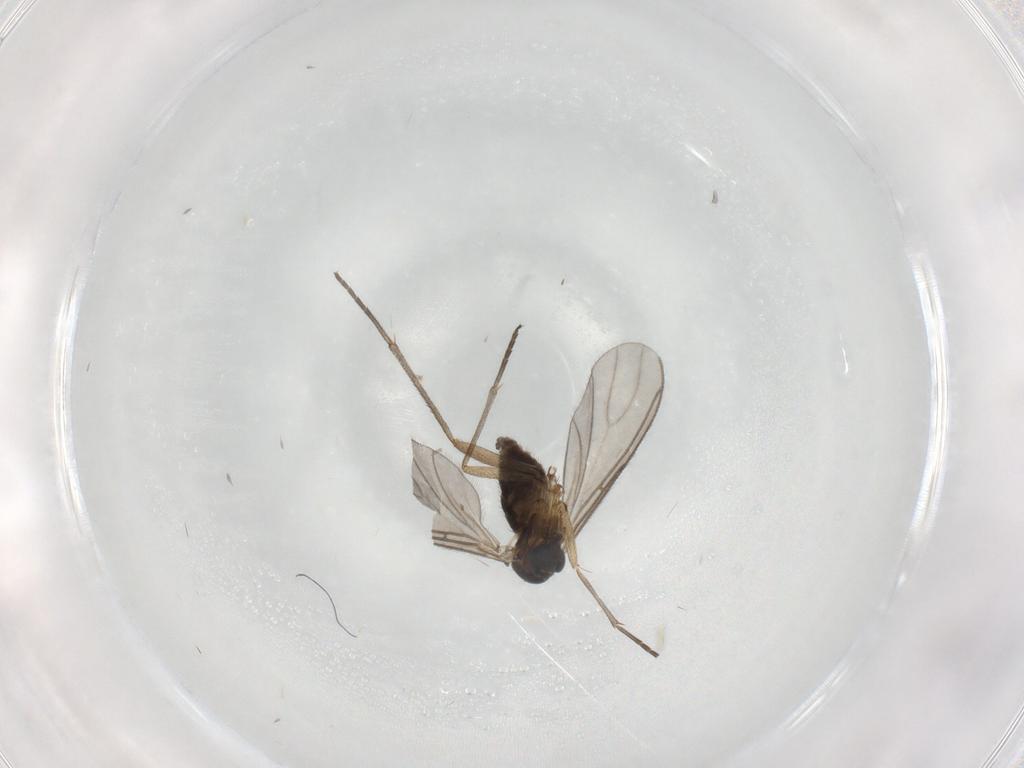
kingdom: Animalia
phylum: Arthropoda
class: Insecta
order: Diptera
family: Sciaridae
